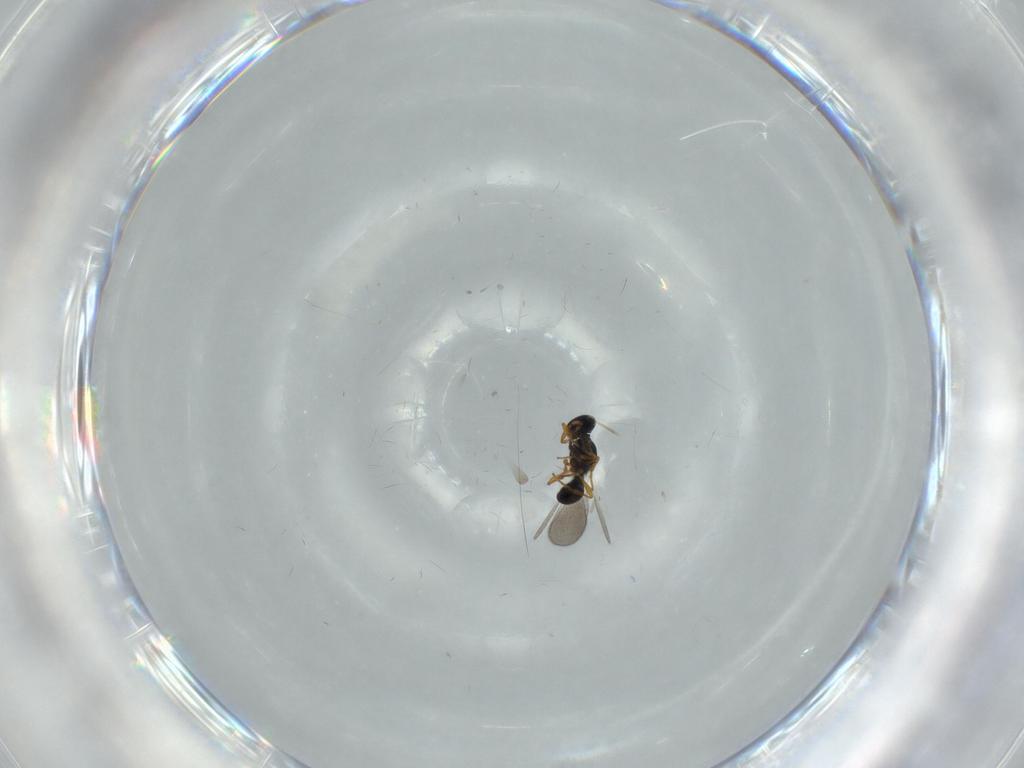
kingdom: Animalia
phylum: Arthropoda
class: Insecta
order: Hymenoptera
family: Platygastridae
